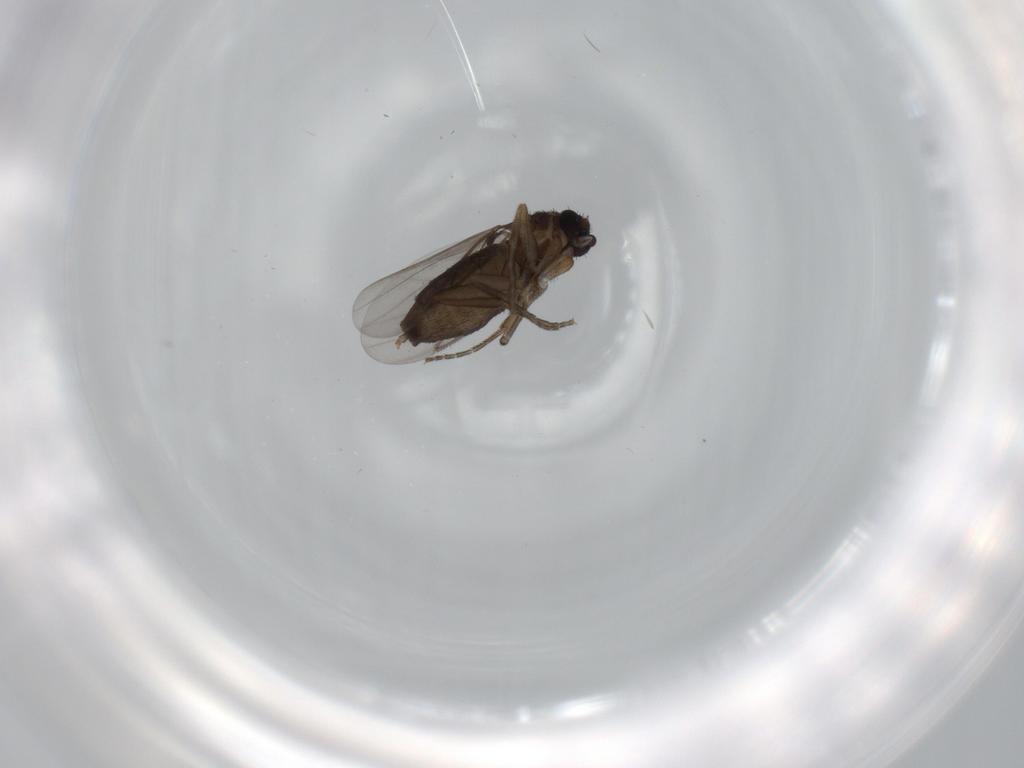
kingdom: Animalia
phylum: Arthropoda
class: Insecta
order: Diptera
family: Phoridae
